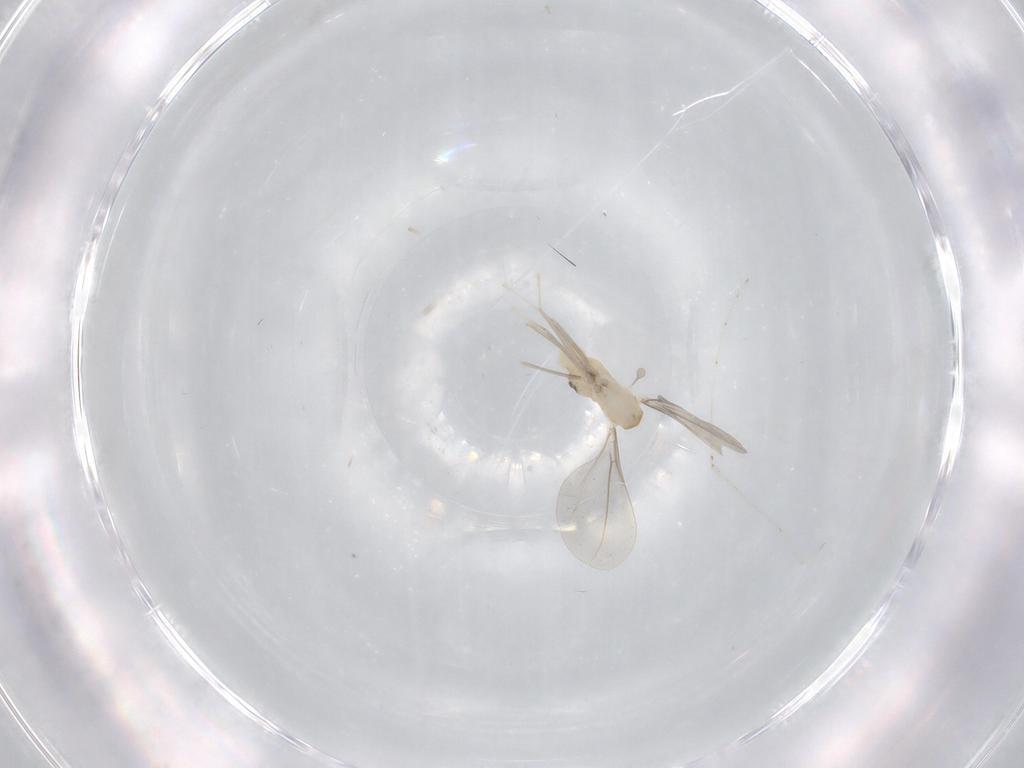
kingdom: Animalia
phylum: Arthropoda
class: Insecta
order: Diptera
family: Cecidomyiidae
